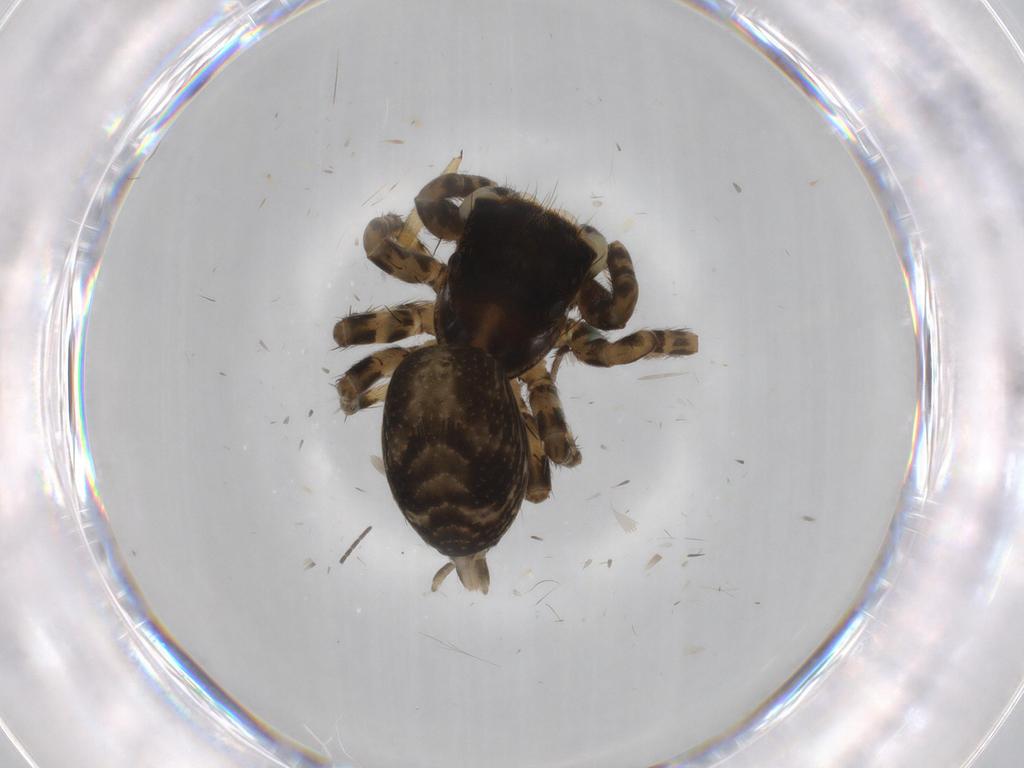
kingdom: Animalia
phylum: Arthropoda
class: Arachnida
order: Araneae
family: Salticidae
